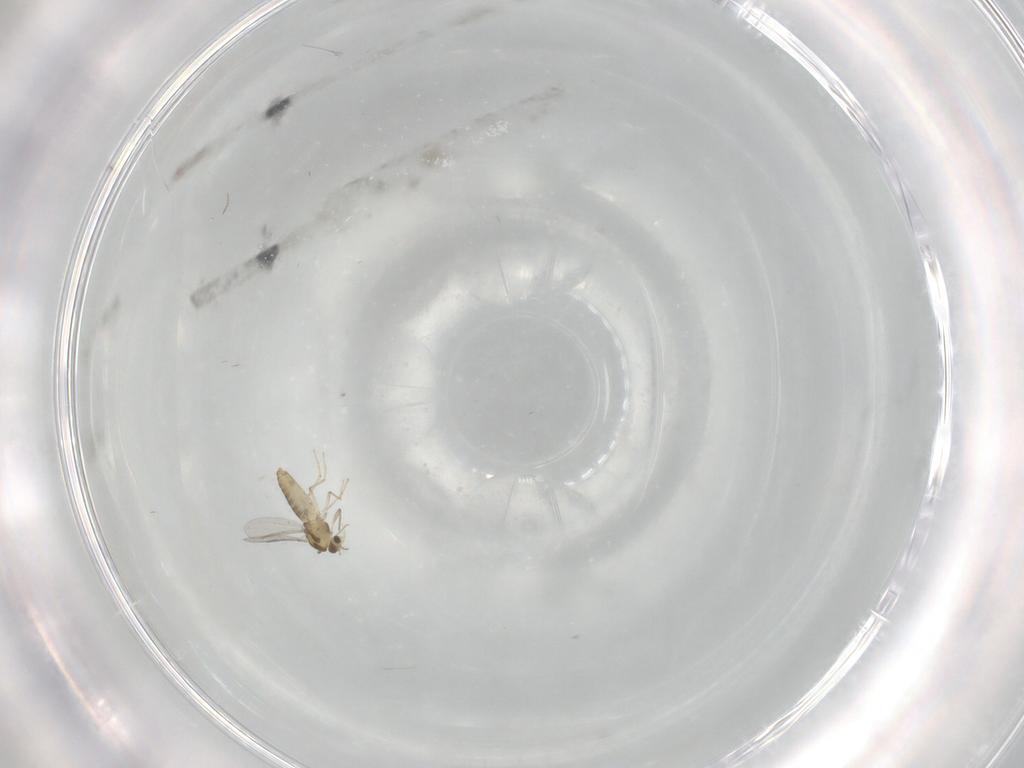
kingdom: Animalia
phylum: Arthropoda
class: Insecta
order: Diptera
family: Chironomidae
